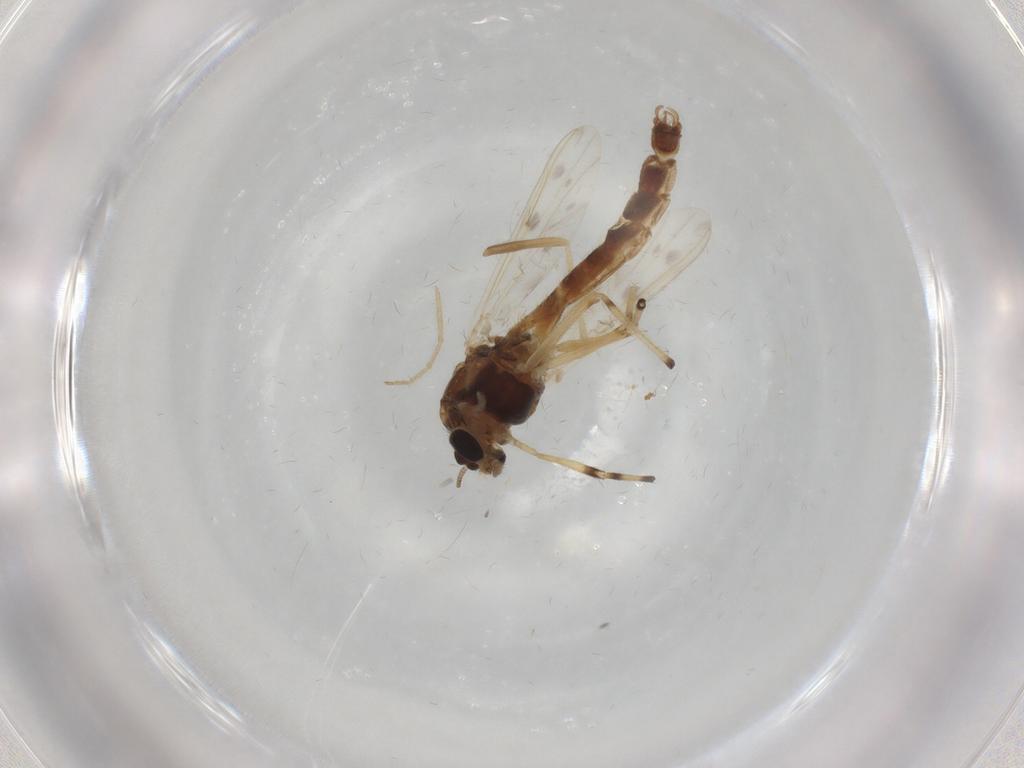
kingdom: Animalia
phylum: Arthropoda
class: Insecta
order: Diptera
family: Chironomidae
